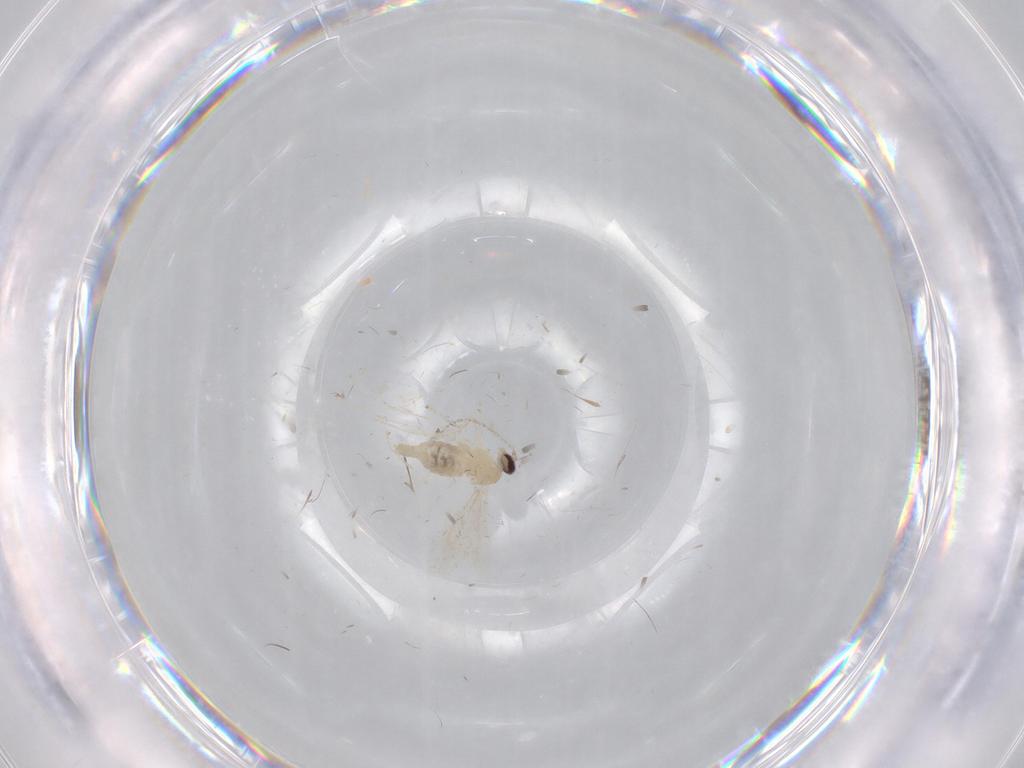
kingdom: Animalia
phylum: Arthropoda
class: Insecta
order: Diptera
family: Cecidomyiidae
